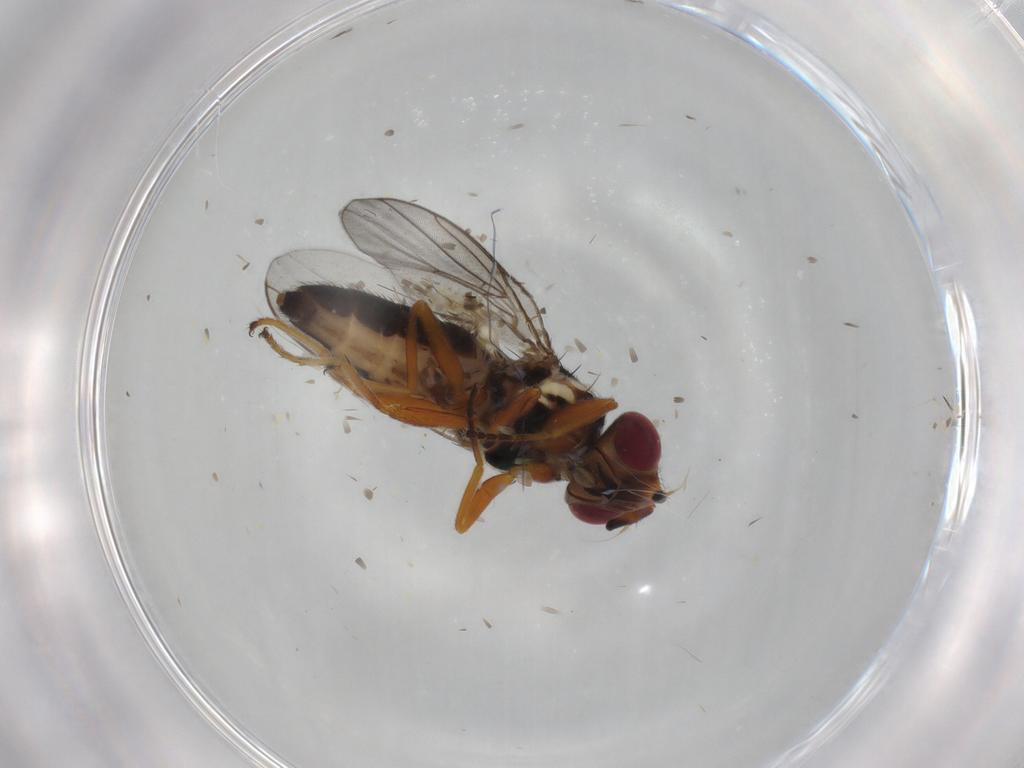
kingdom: Animalia
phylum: Arthropoda
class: Insecta
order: Diptera
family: Chloropidae
